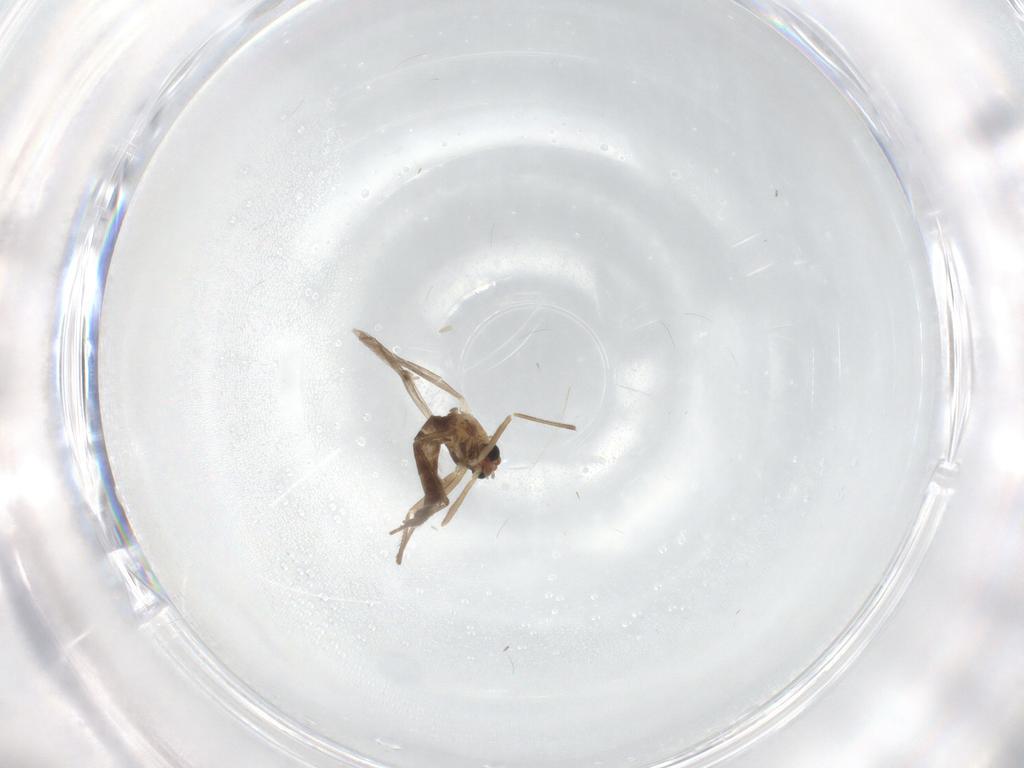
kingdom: Animalia
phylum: Arthropoda
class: Insecta
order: Diptera
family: Chironomidae
